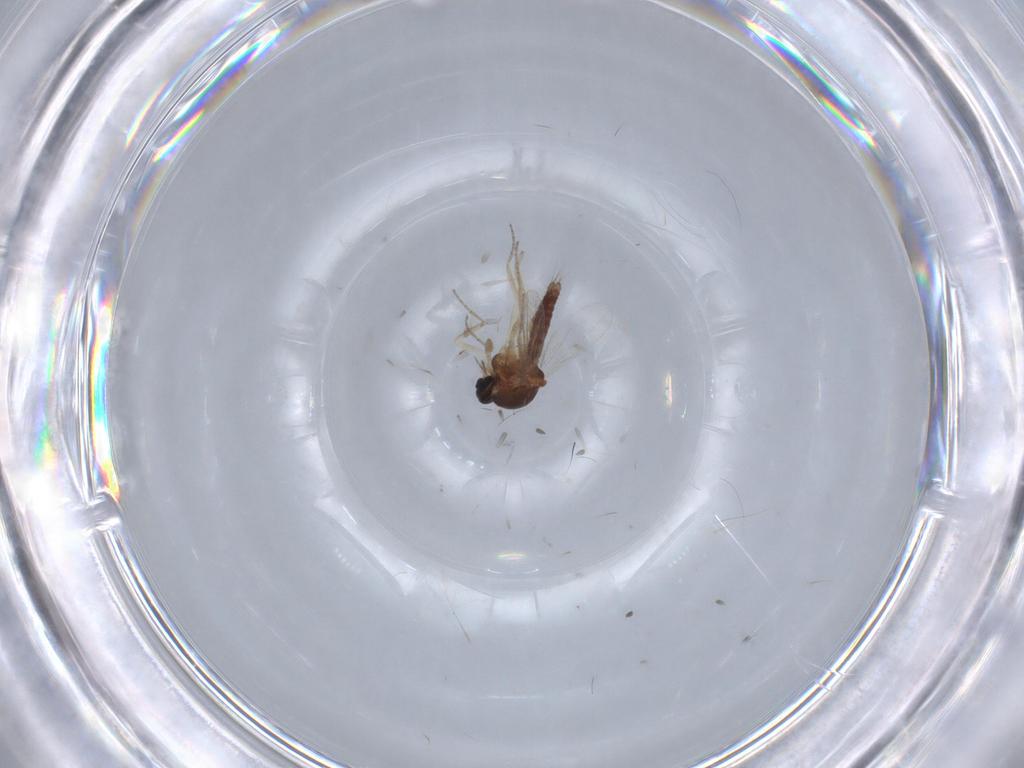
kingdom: Animalia
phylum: Arthropoda
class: Insecta
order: Diptera
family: Ceratopogonidae
